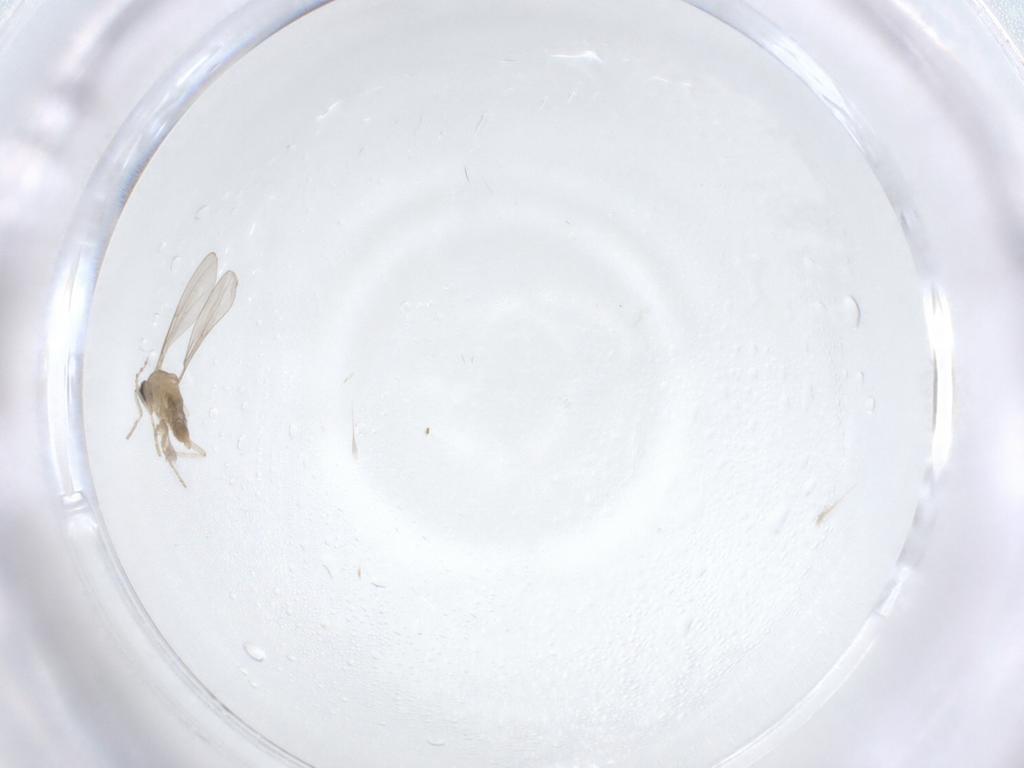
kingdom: Animalia
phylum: Arthropoda
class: Insecta
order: Diptera
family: Cecidomyiidae
